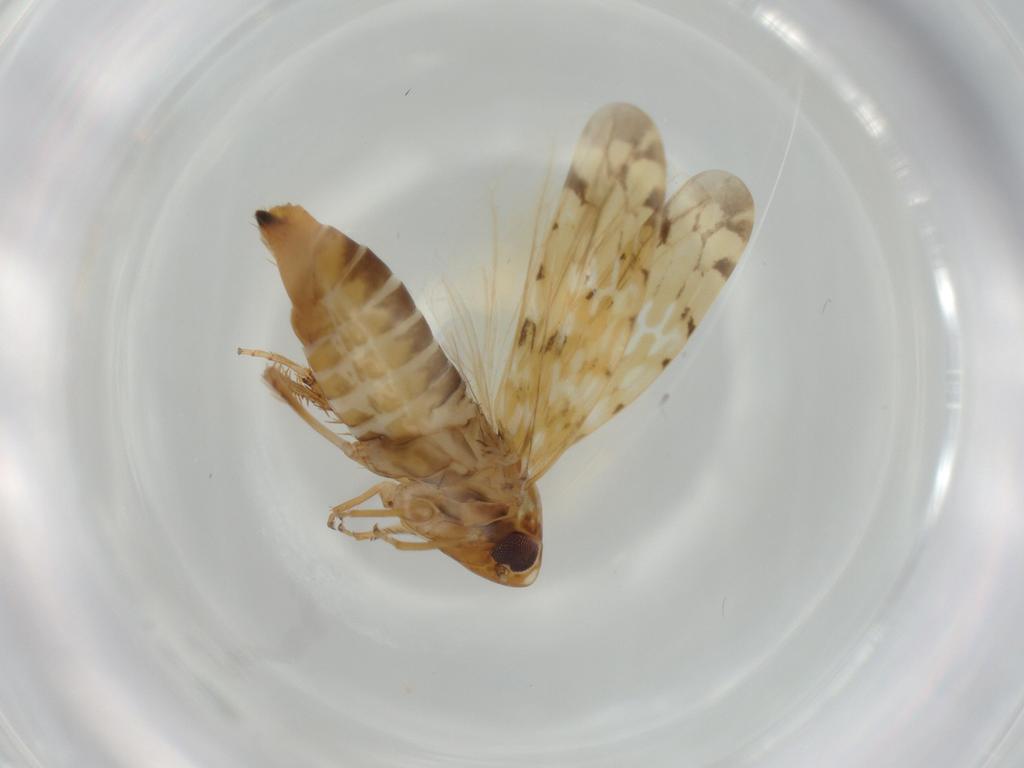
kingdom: Animalia
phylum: Arthropoda
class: Insecta
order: Hemiptera
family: Cicadellidae
